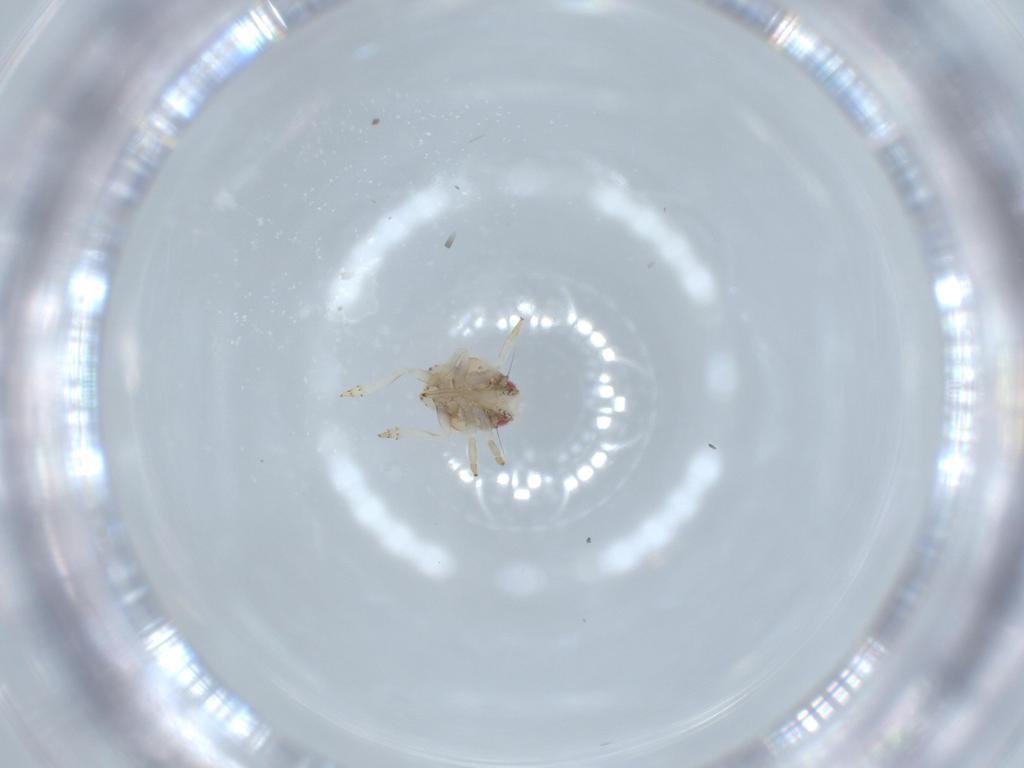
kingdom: Animalia
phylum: Arthropoda
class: Insecta
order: Hemiptera
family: Acanaloniidae
